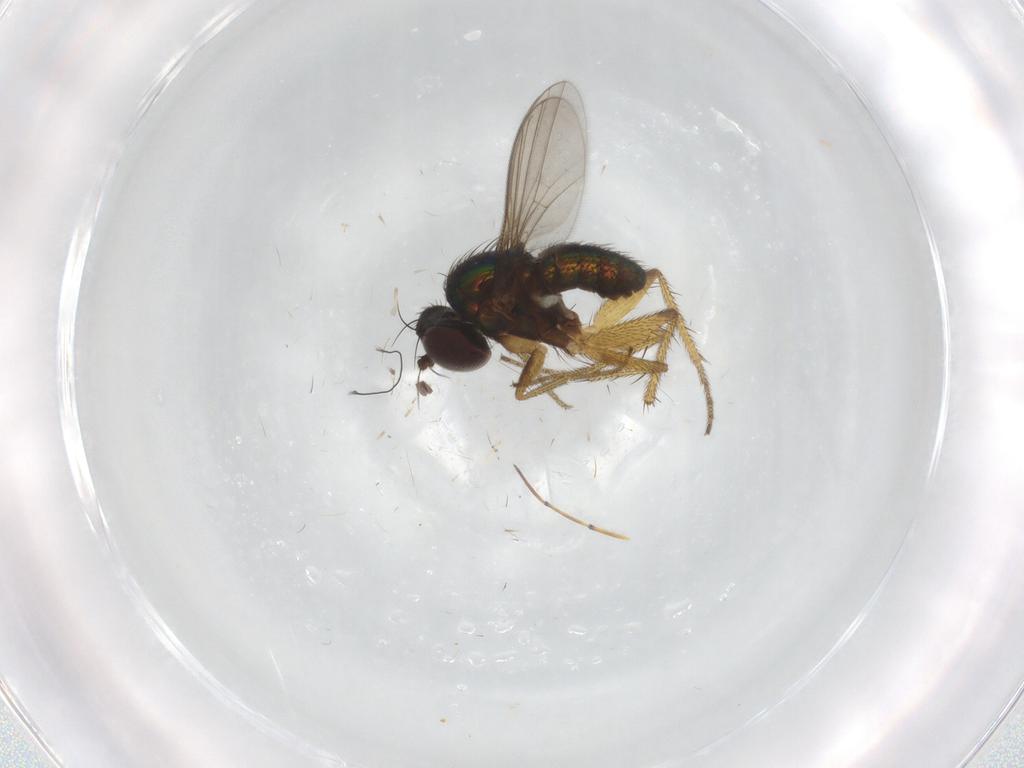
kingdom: Animalia
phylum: Arthropoda
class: Insecta
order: Diptera
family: Dolichopodidae
